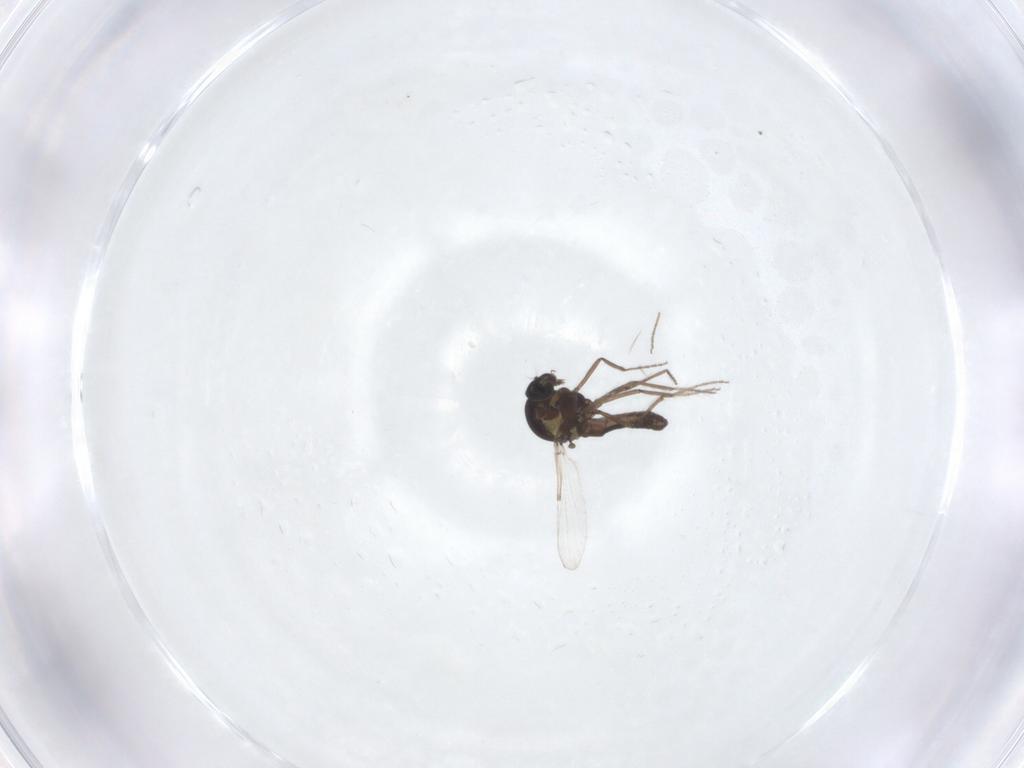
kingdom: Animalia
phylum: Arthropoda
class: Insecta
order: Diptera
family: Ceratopogonidae
